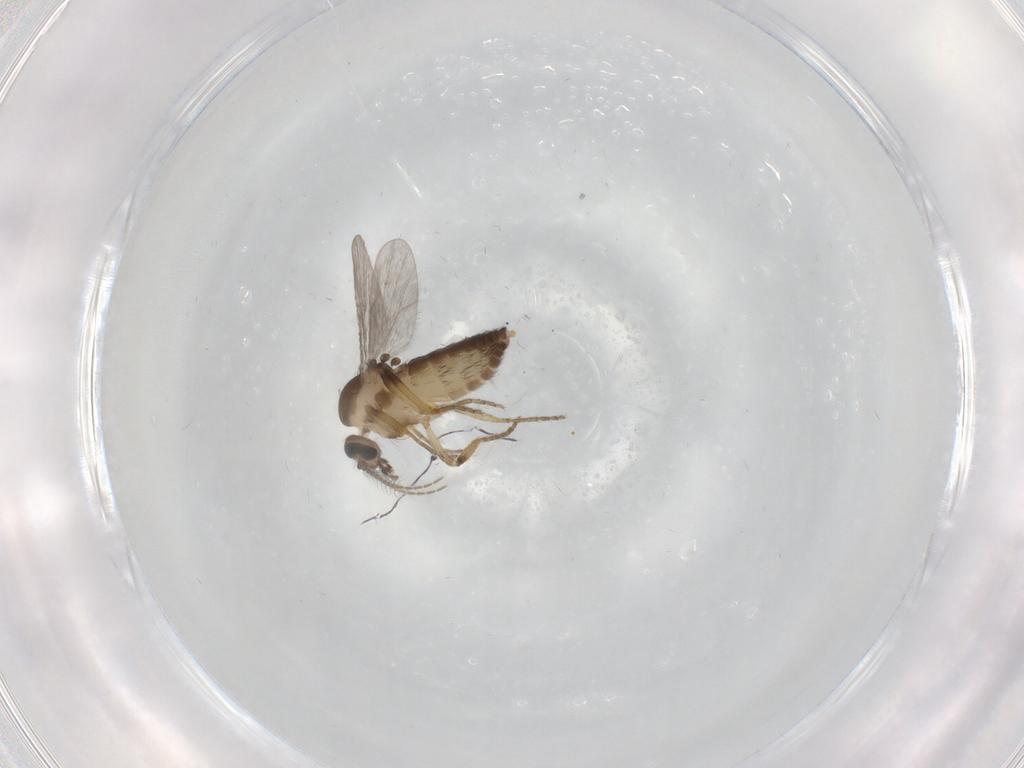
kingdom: Animalia
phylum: Arthropoda
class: Insecta
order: Diptera
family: Ceratopogonidae
